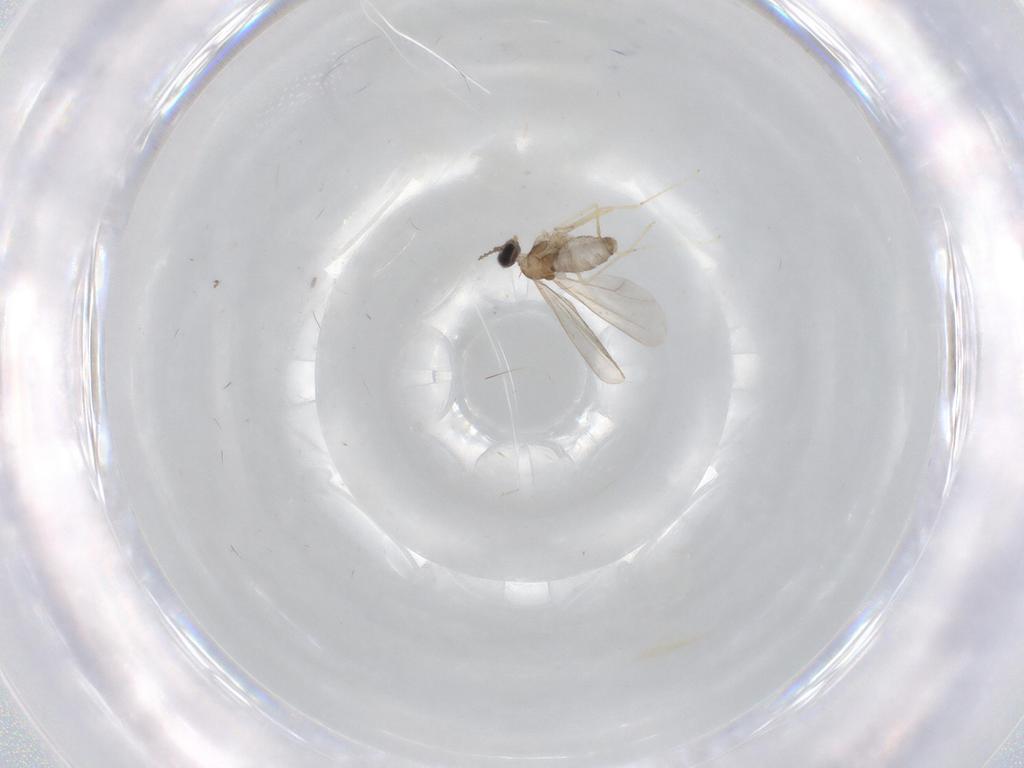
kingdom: Animalia
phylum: Arthropoda
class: Insecta
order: Diptera
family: Cecidomyiidae
